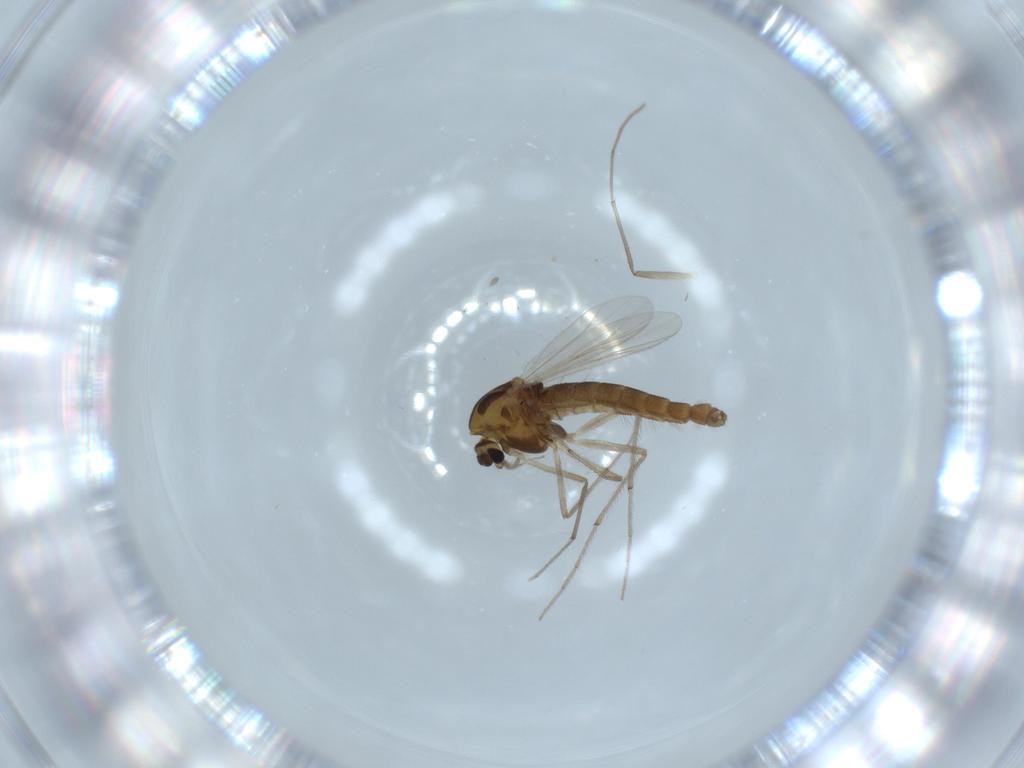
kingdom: Animalia
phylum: Arthropoda
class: Insecta
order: Diptera
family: Chironomidae
